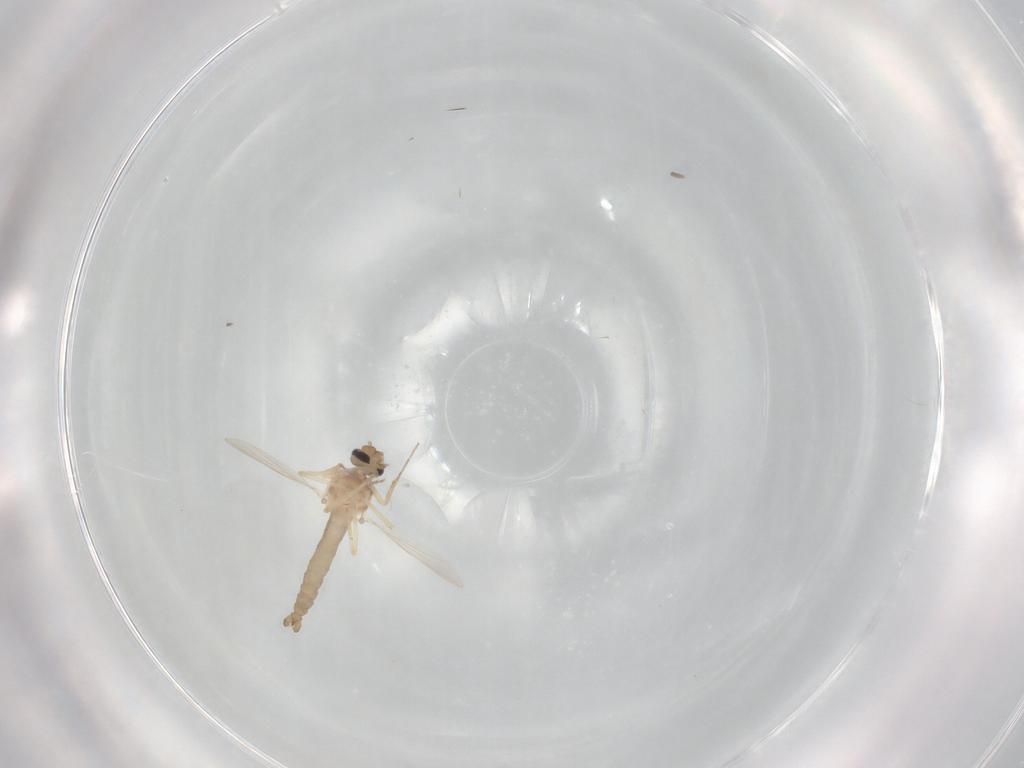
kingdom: Animalia
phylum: Arthropoda
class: Insecta
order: Diptera
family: Ceratopogonidae
